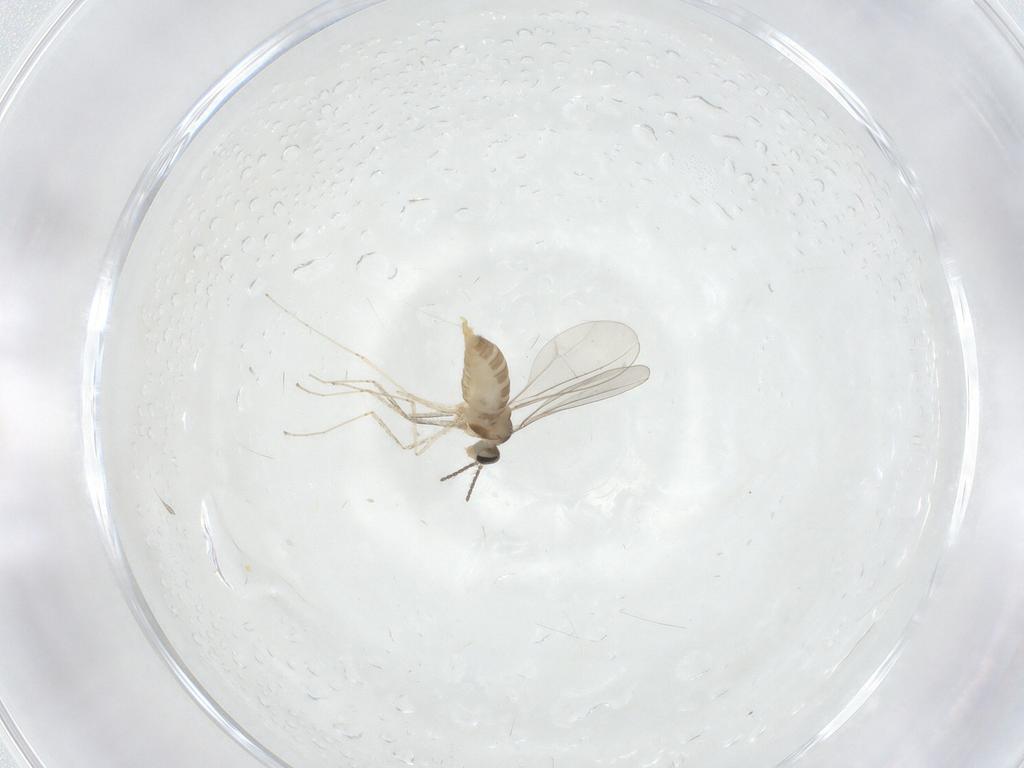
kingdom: Animalia
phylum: Arthropoda
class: Insecta
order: Diptera
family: Cecidomyiidae
